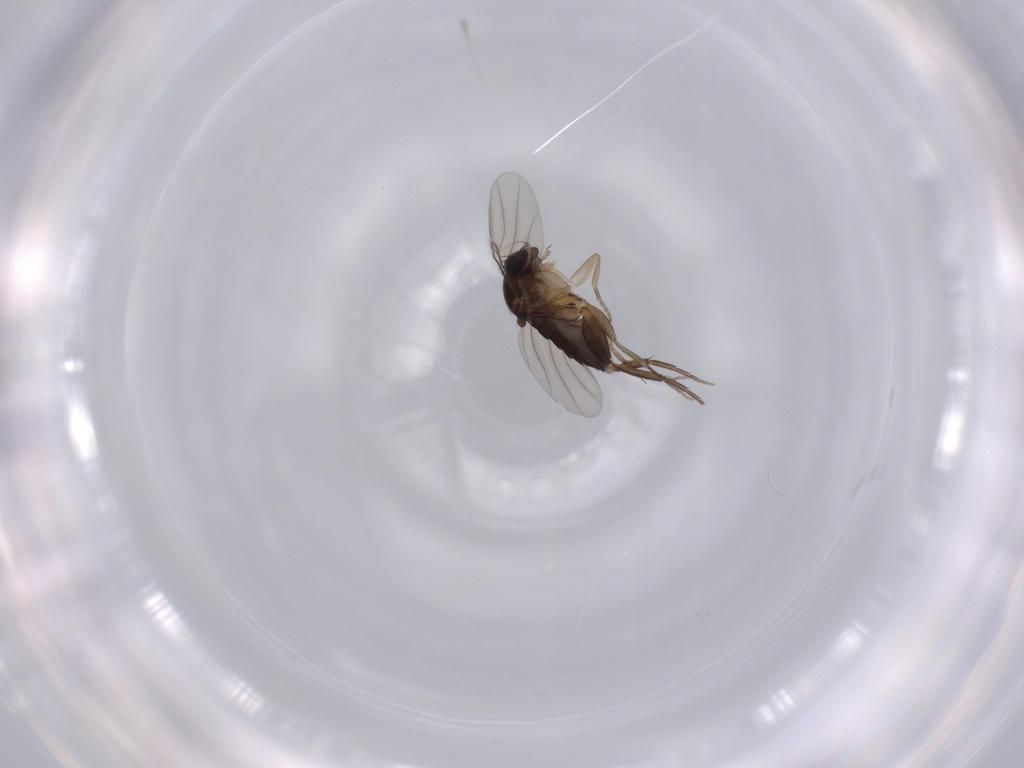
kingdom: Animalia
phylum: Arthropoda
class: Insecta
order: Diptera
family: Phoridae
